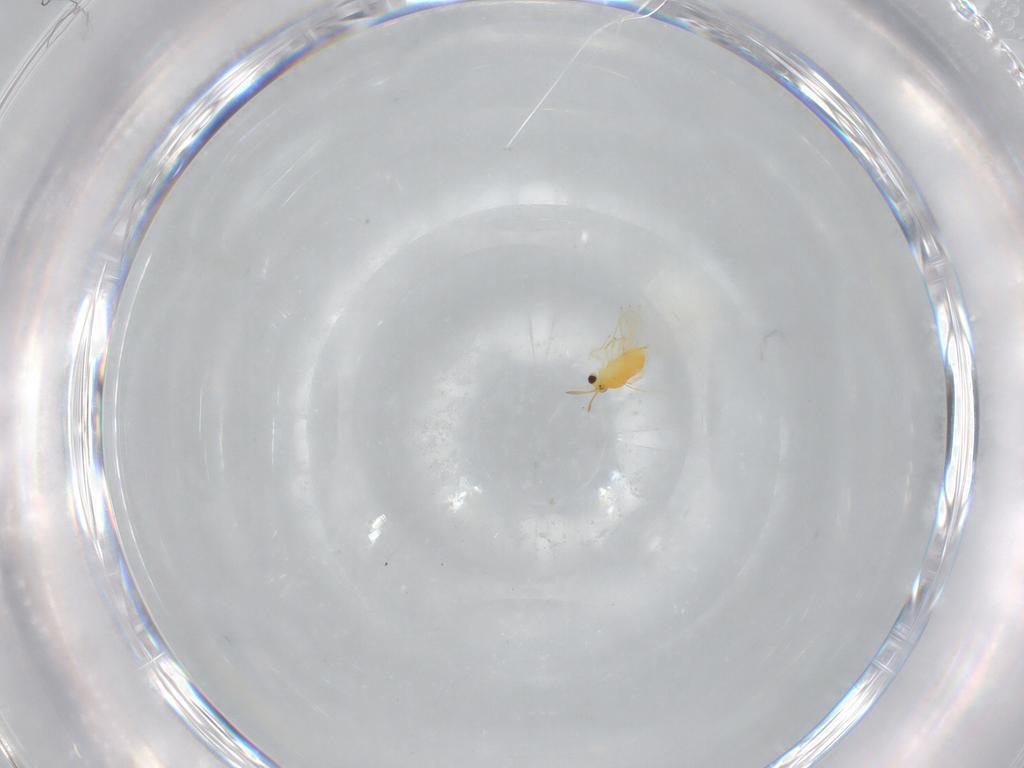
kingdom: Animalia
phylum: Arthropoda
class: Insecta
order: Hymenoptera
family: Aphelinidae
